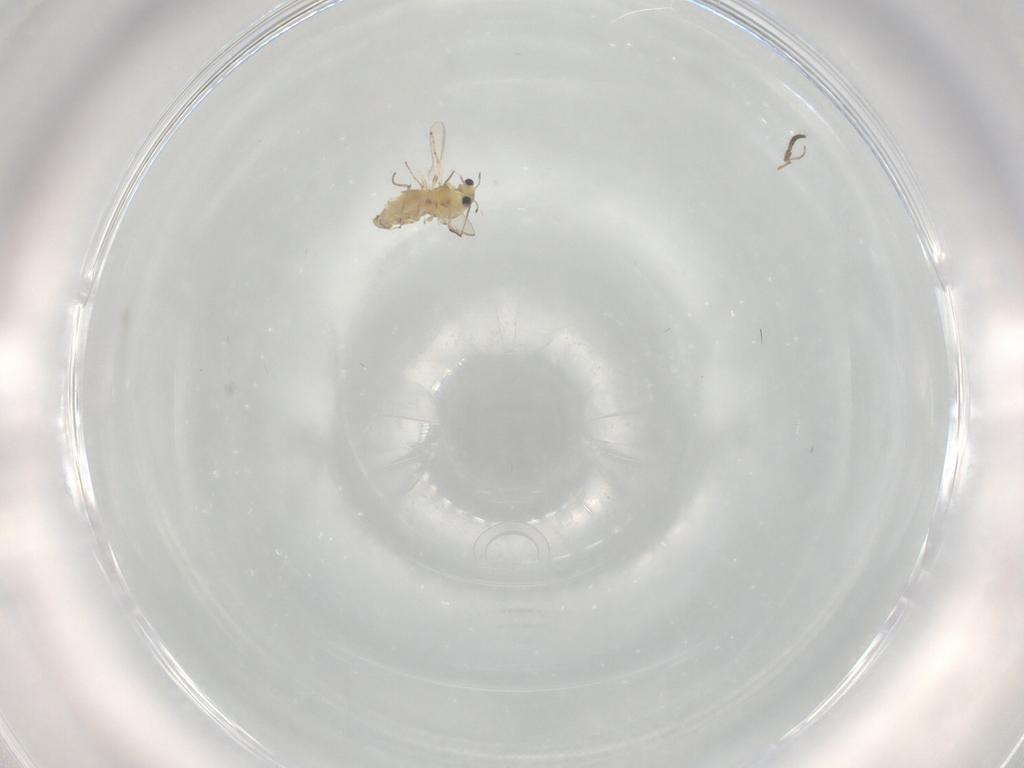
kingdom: Animalia
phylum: Arthropoda
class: Insecta
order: Diptera
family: Chironomidae
